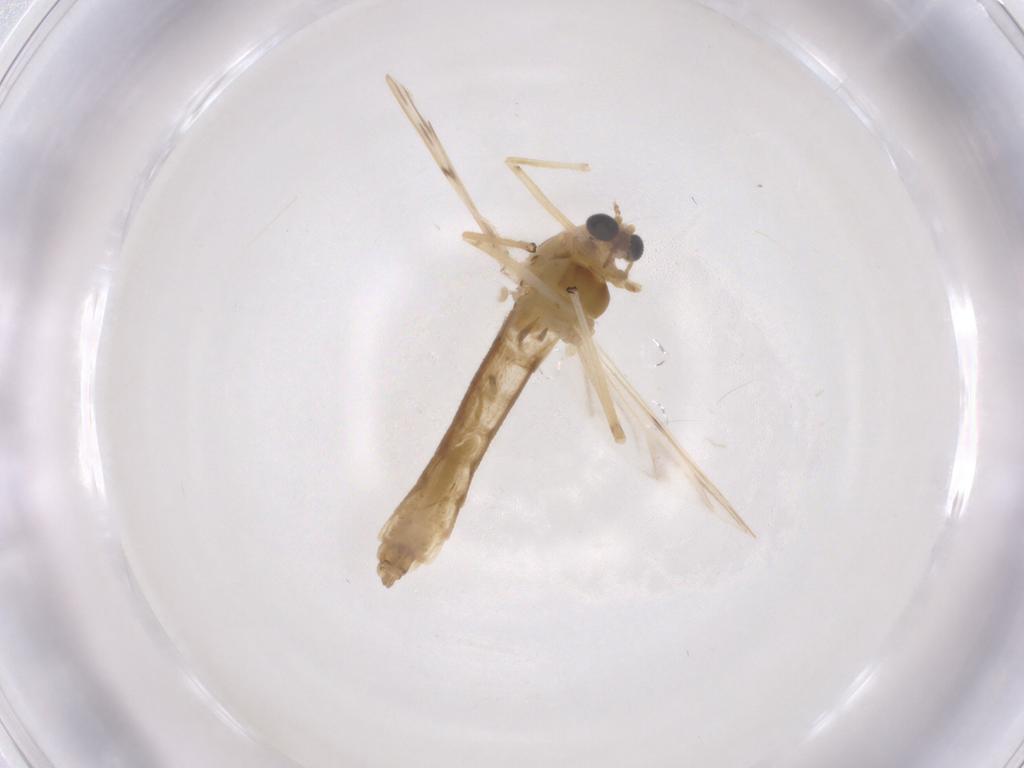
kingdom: Animalia
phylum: Arthropoda
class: Insecta
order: Diptera
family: Chironomidae
